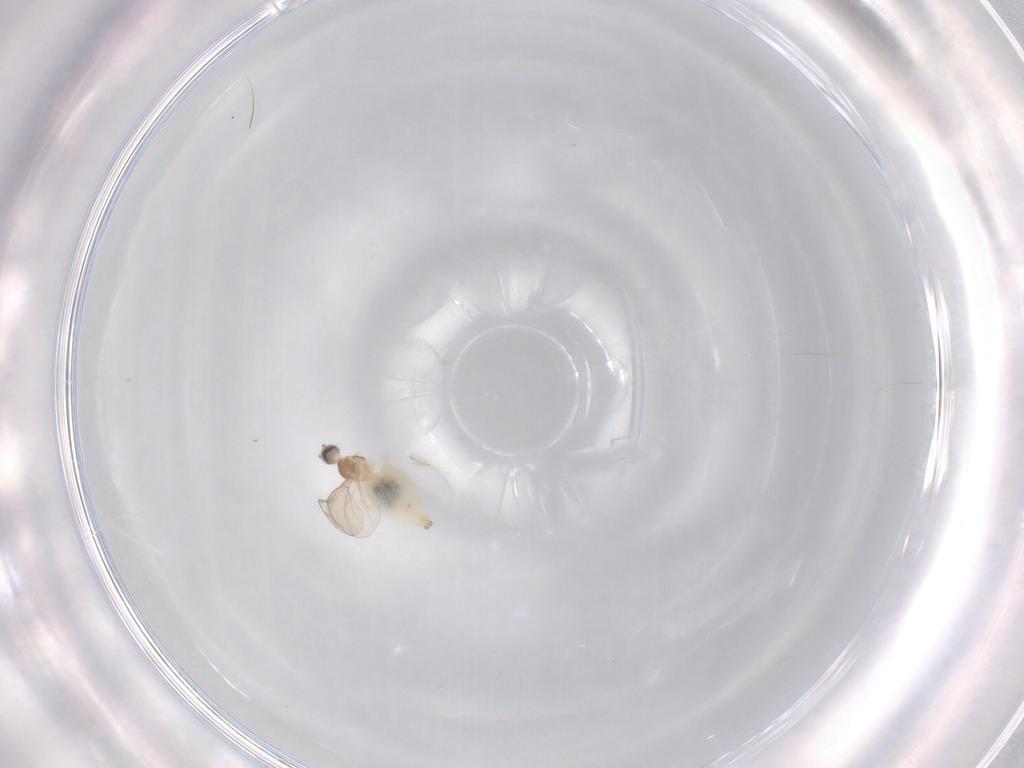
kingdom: Animalia
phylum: Arthropoda
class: Insecta
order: Diptera
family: Cecidomyiidae
